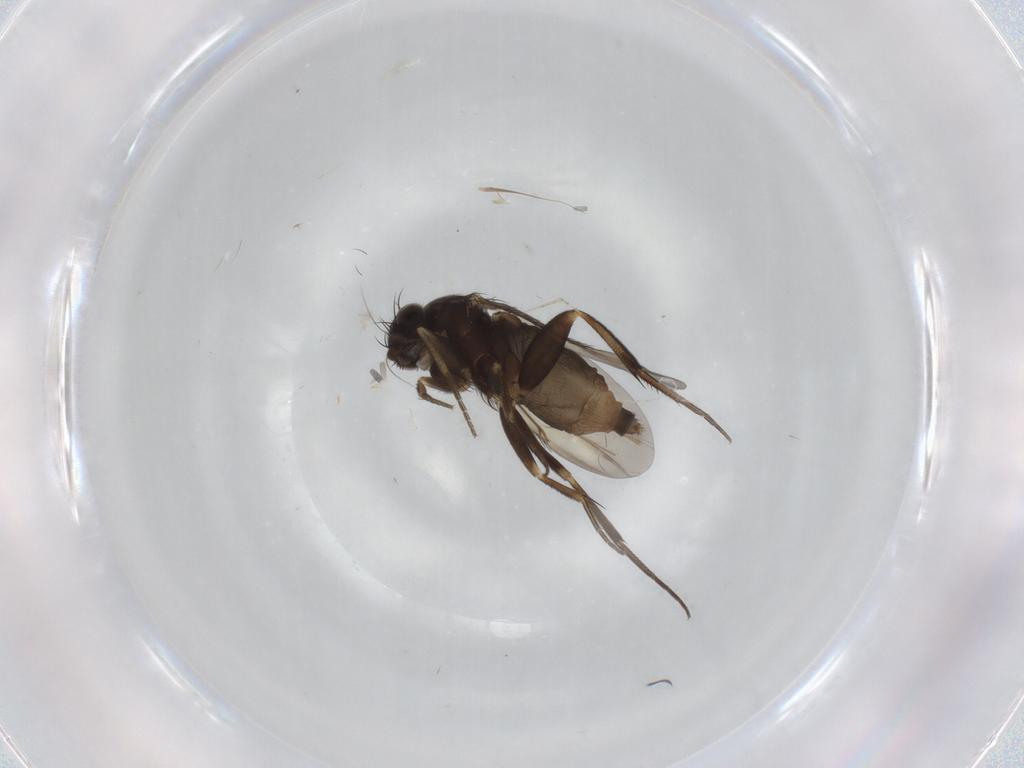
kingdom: Animalia
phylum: Arthropoda
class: Insecta
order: Diptera
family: Phoridae
